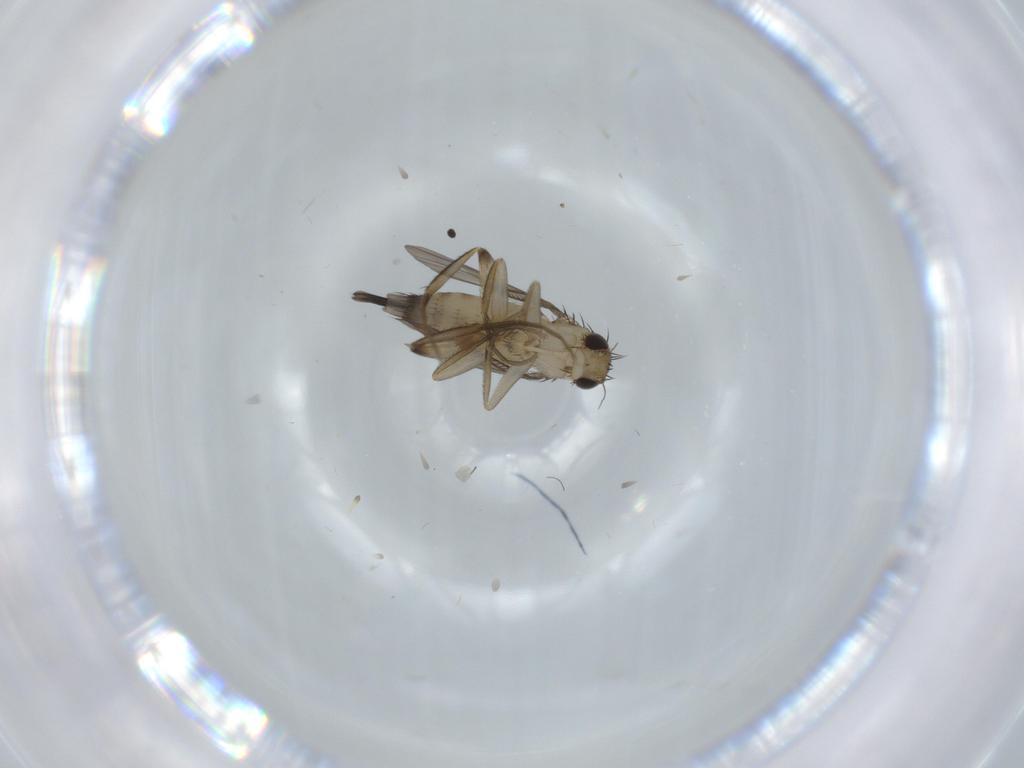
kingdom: Animalia
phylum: Arthropoda
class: Insecta
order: Diptera
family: Phoridae
